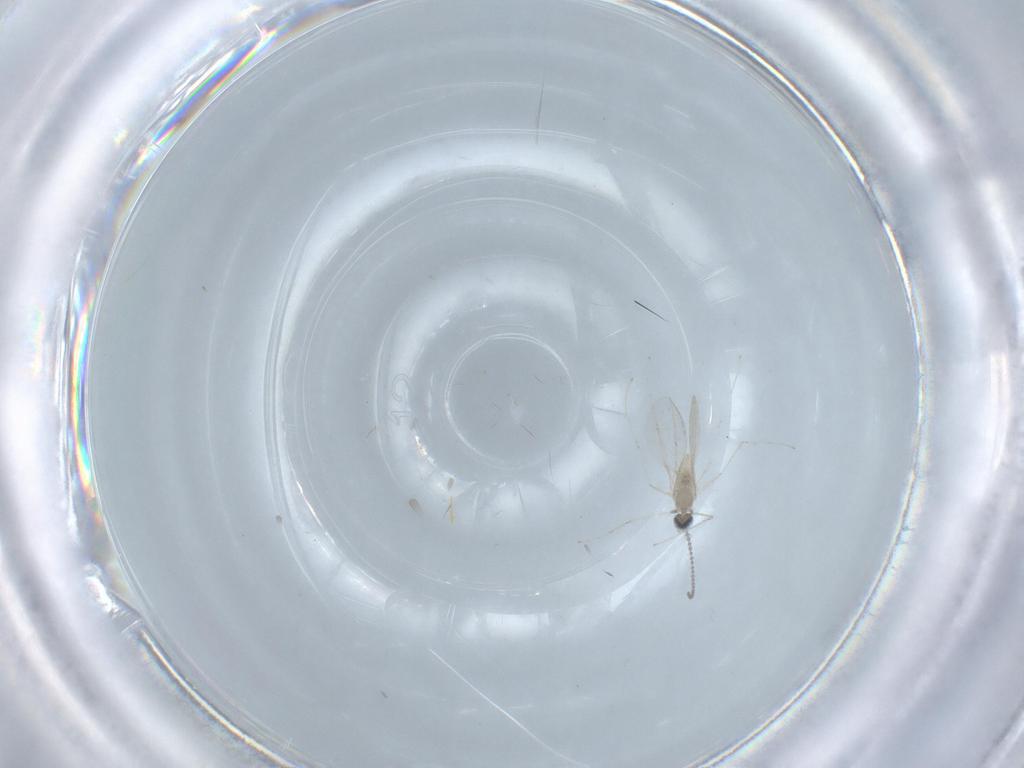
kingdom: Animalia
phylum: Arthropoda
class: Insecta
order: Diptera
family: Cecidomyiidae
